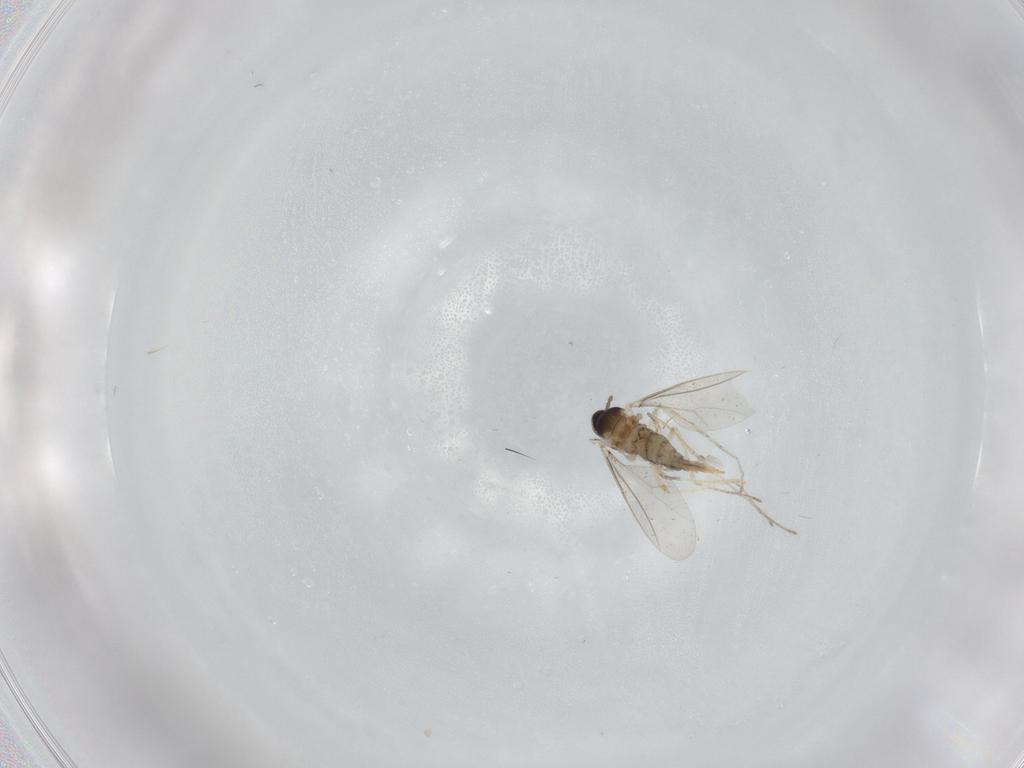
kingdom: Animalia
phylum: Arthropoda
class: Insecta
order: Diptera
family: Cecidomyiidae
